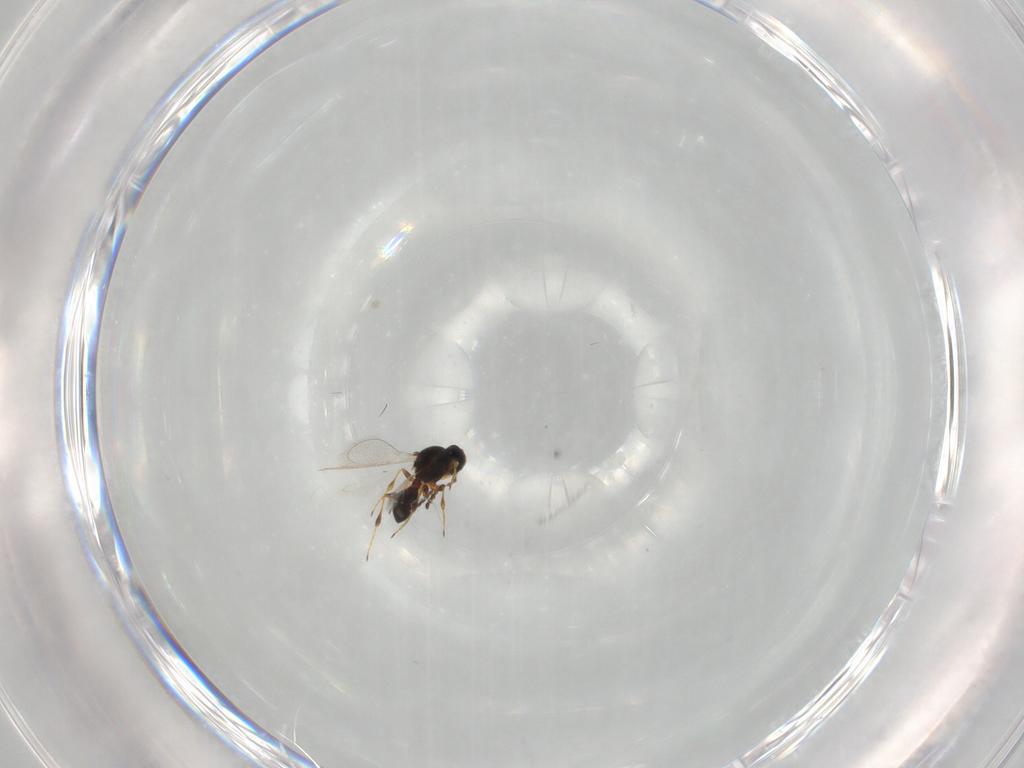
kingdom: Animalia
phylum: Arthropoda
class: Insecta
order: Hymenoptera
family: Platygastridae
